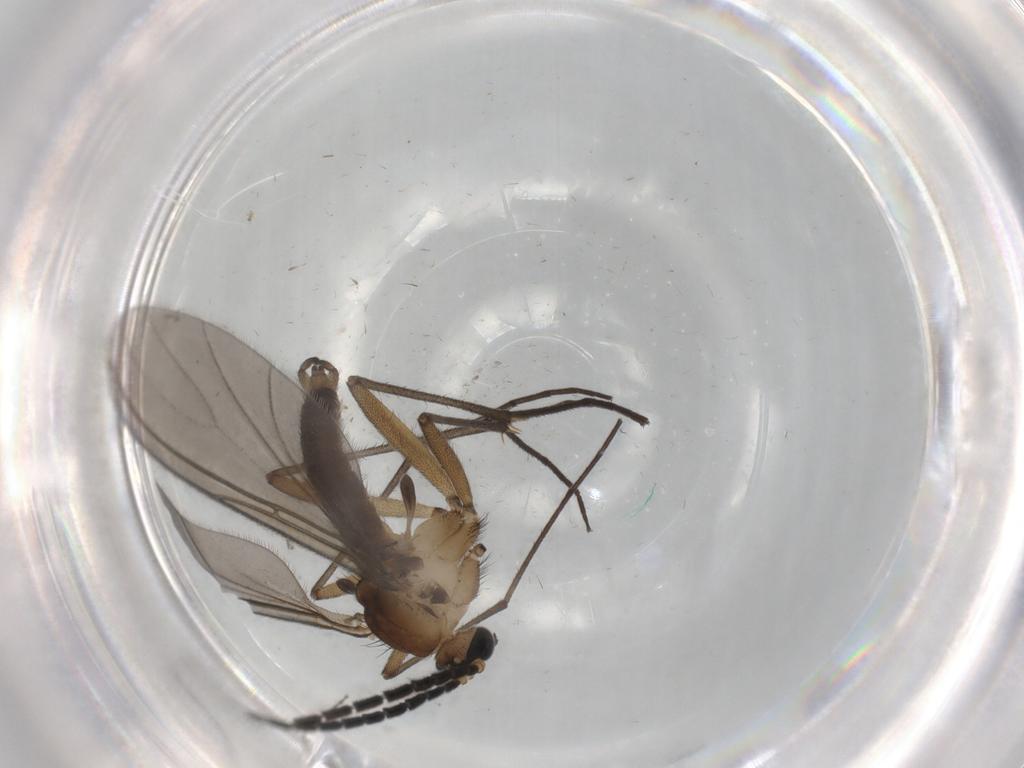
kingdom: Animalia
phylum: Arthropoda
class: Insecta
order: Diptera
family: Sciaridae
